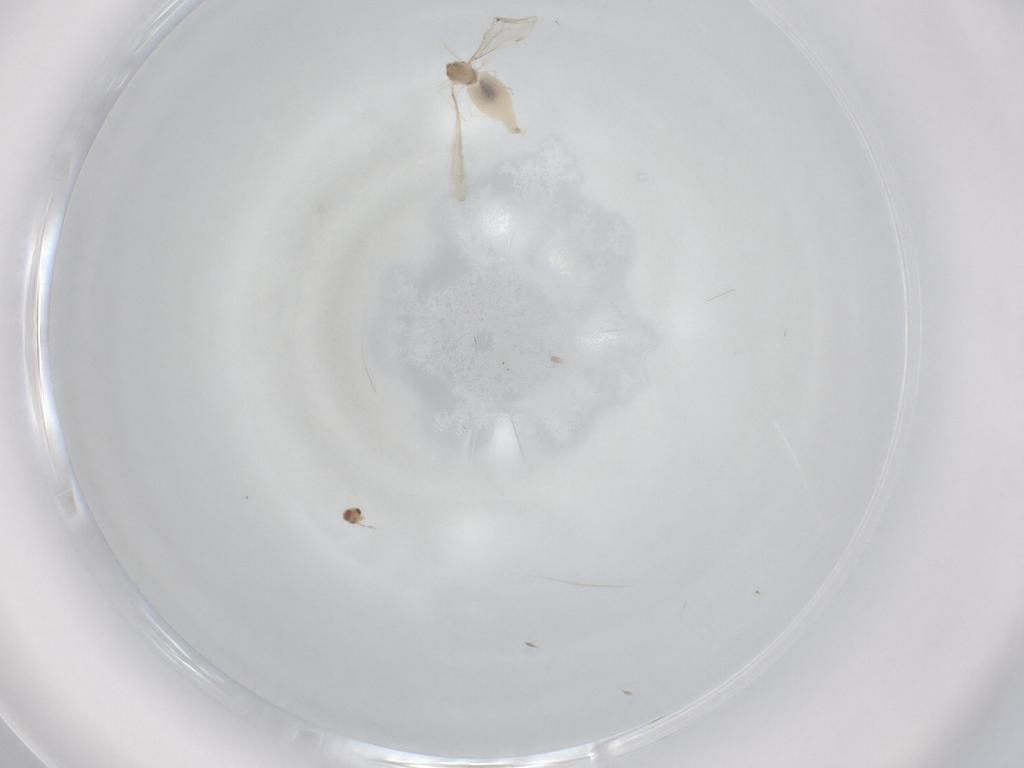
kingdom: Animalia
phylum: Arthropoda
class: Insecta
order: Diptera
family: Cecidomyiidae
